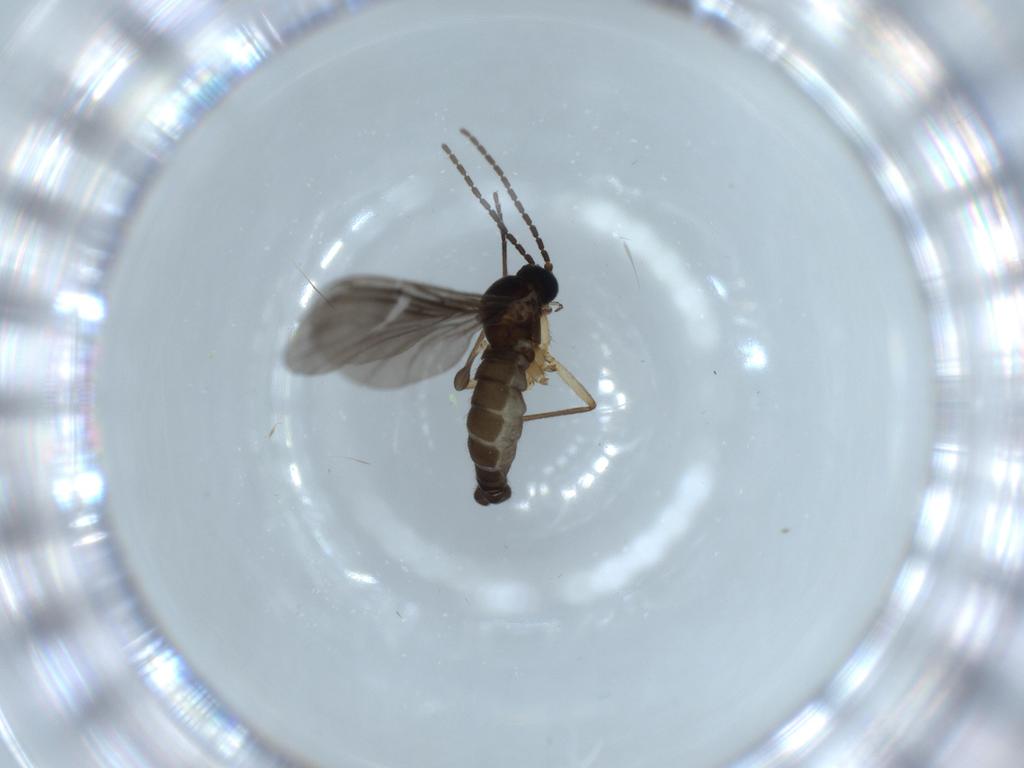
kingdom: Animalia
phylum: Arthropoda
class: Insecta
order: Diptera
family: Sciaridae
